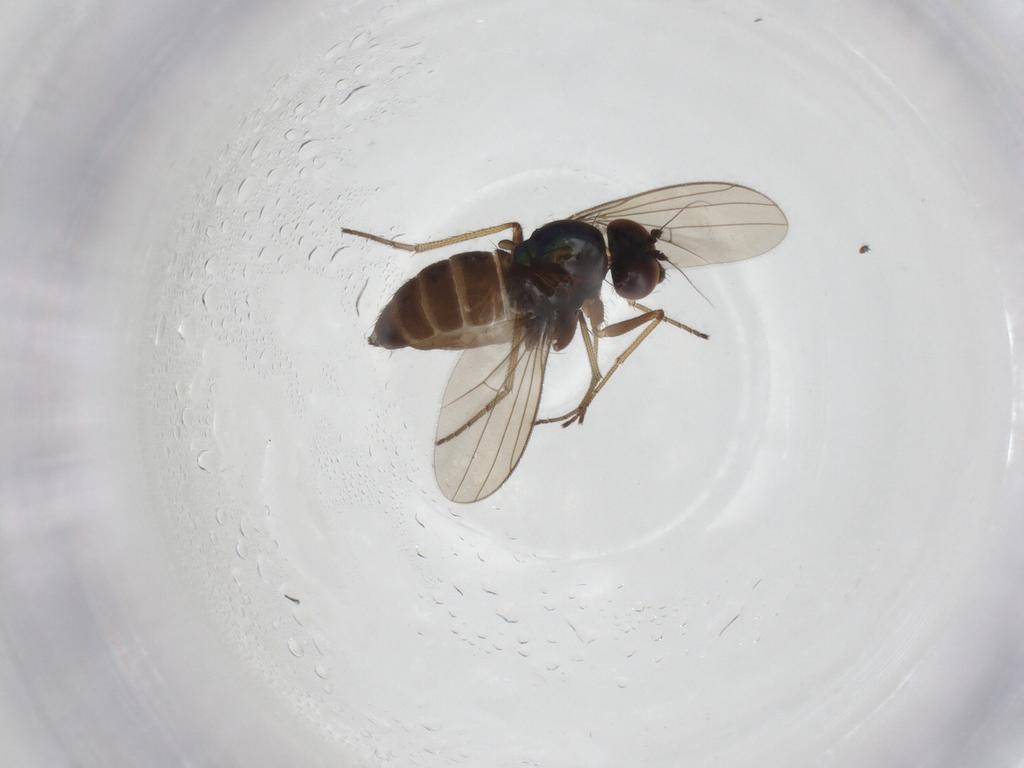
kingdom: Animalia
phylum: Arthropoda
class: Insecta
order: Diptera
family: Dolichopodidae
